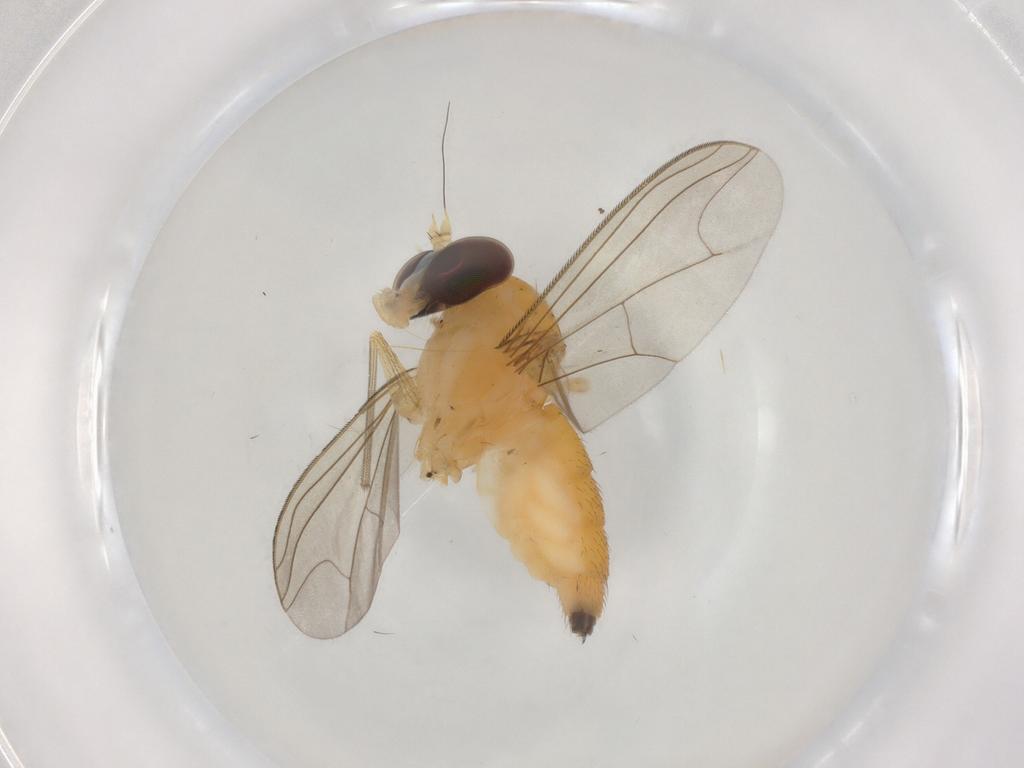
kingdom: Animalia
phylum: Arthropoda
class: Insecta
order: Diptera
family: Dolichopodidae
